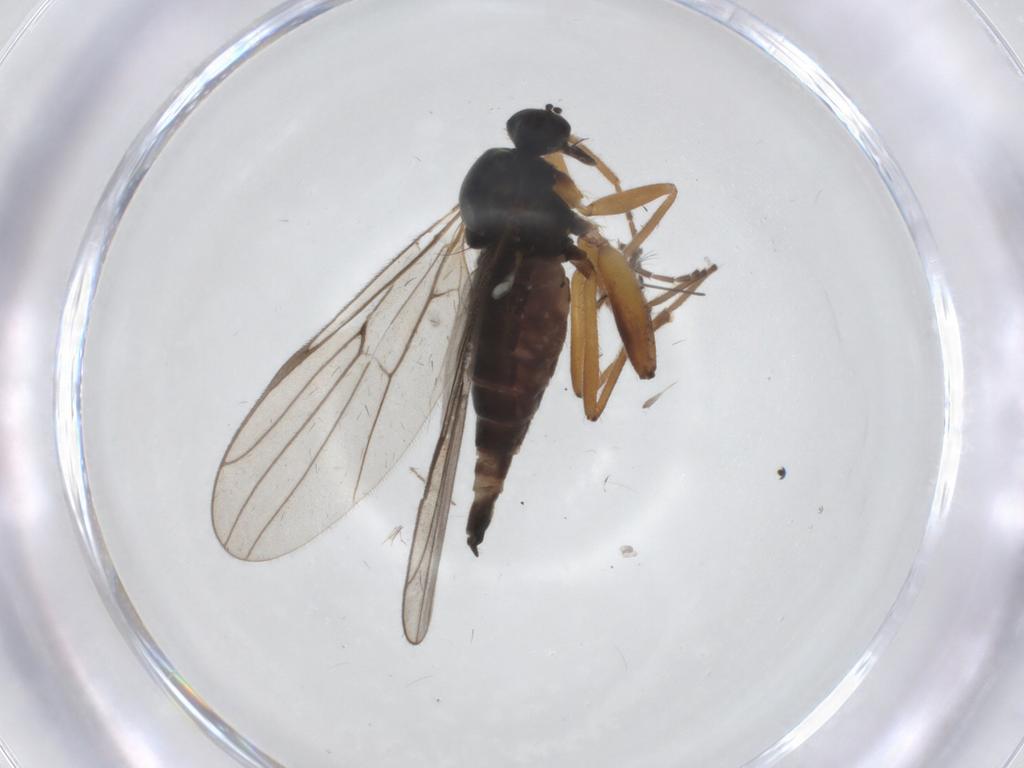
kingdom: Animalia
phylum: Arthropoda
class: Insecta
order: Diptera
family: Hybotidae
